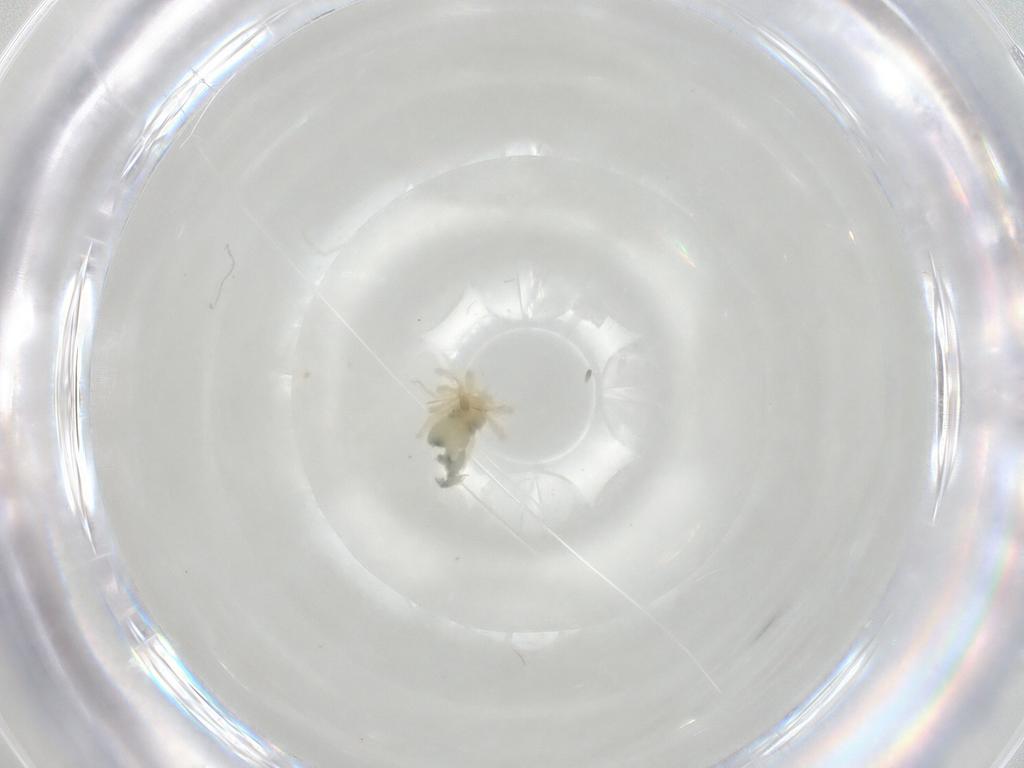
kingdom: Animalia
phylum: Arthropoda
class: Arachnida
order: Trombidiformes
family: Anystidae
